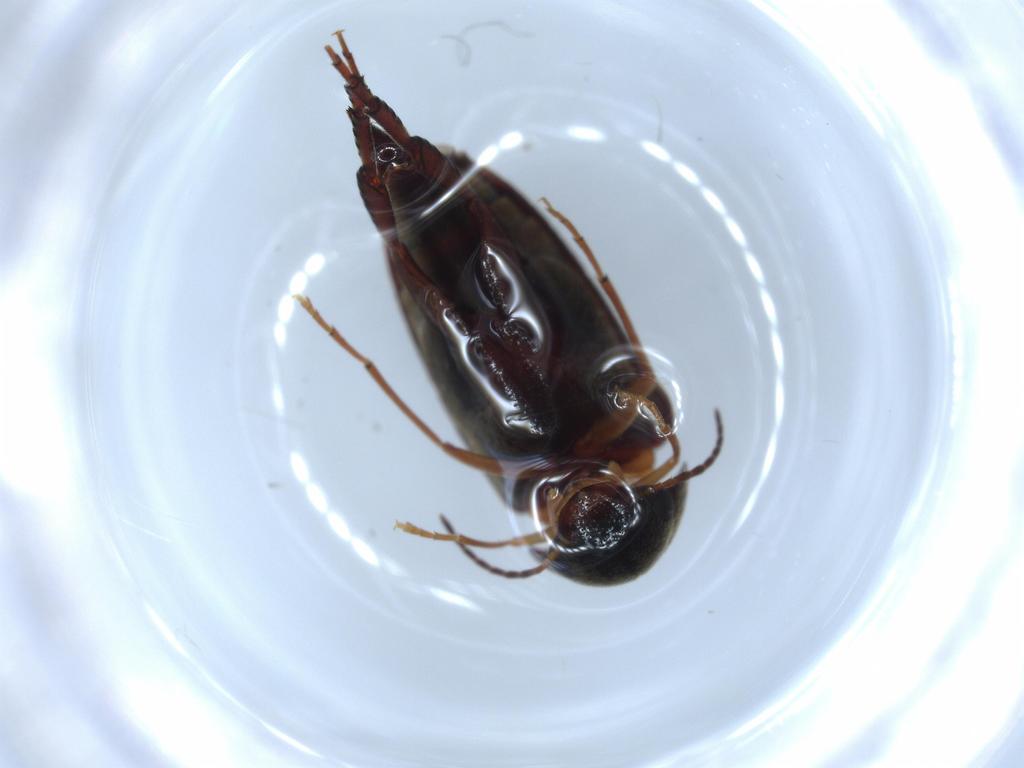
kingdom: Animalia
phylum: Arthropoda
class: Insecta
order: Coleoptera
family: Mordellidae
